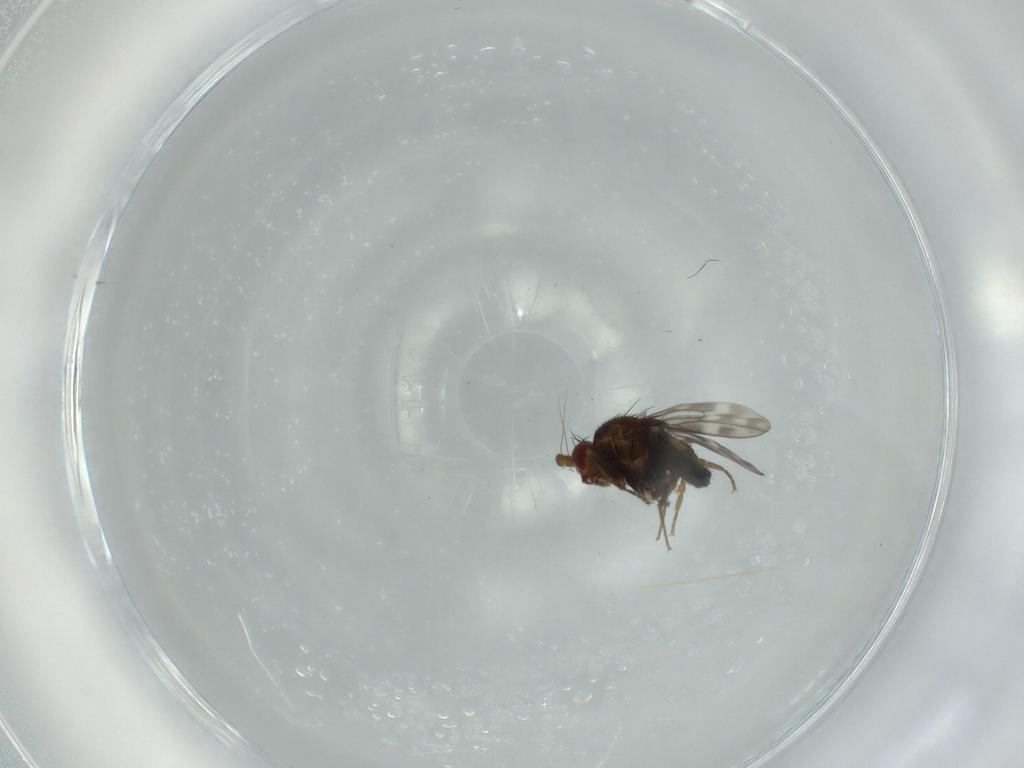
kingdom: Animalia
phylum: Arthropoda
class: Insecta
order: Diptera
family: Sphaeroceridae
